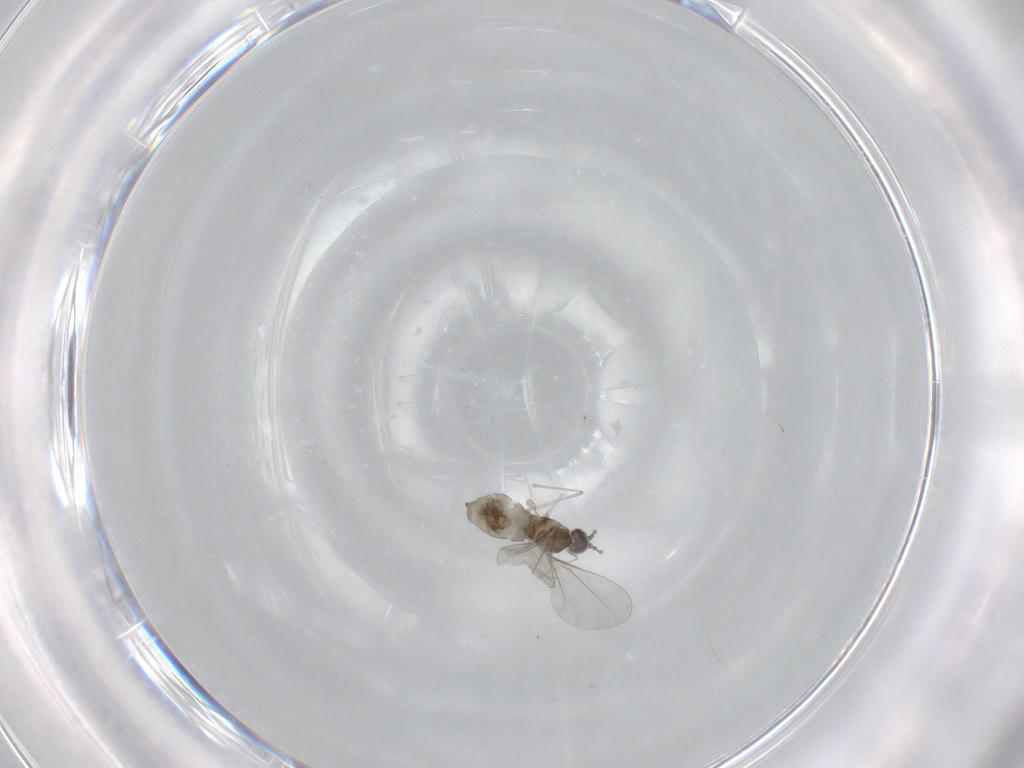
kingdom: Animalia
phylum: Arthropoda
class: Insecta
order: Diptera
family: Cecidomyiidae
